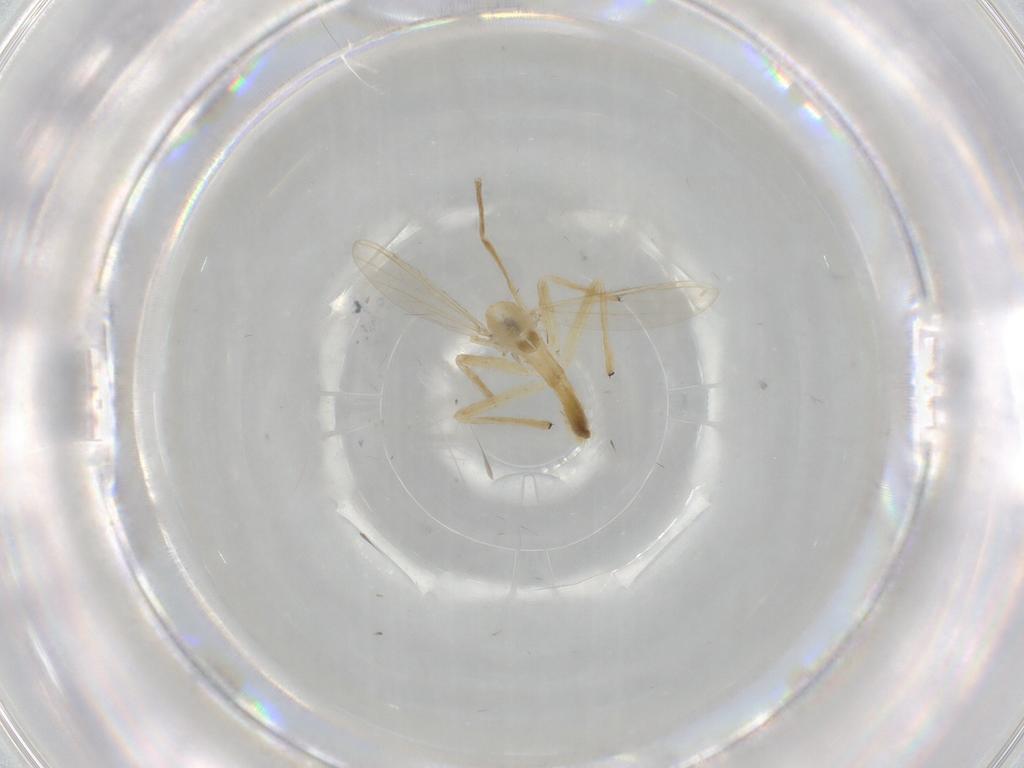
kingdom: Animalia
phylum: Arthropoda
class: Insecta
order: Diptera
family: Chironomidae
